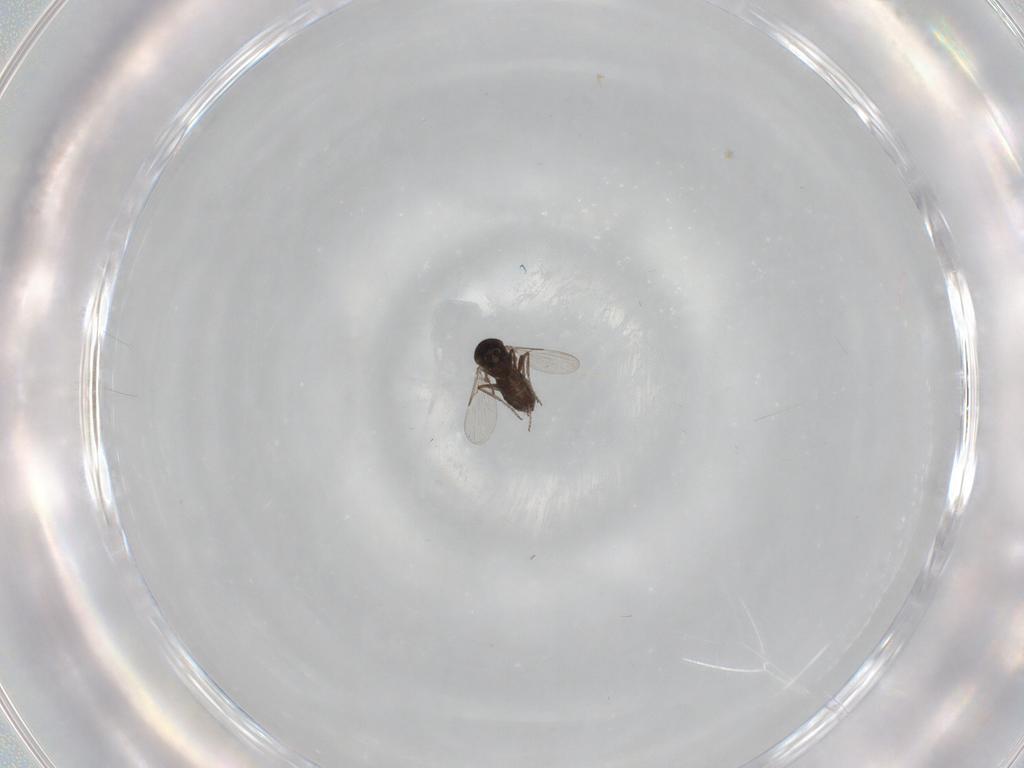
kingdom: Animalia
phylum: Arthropoda
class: Insecta
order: Diptera
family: Ceratopogonidae
